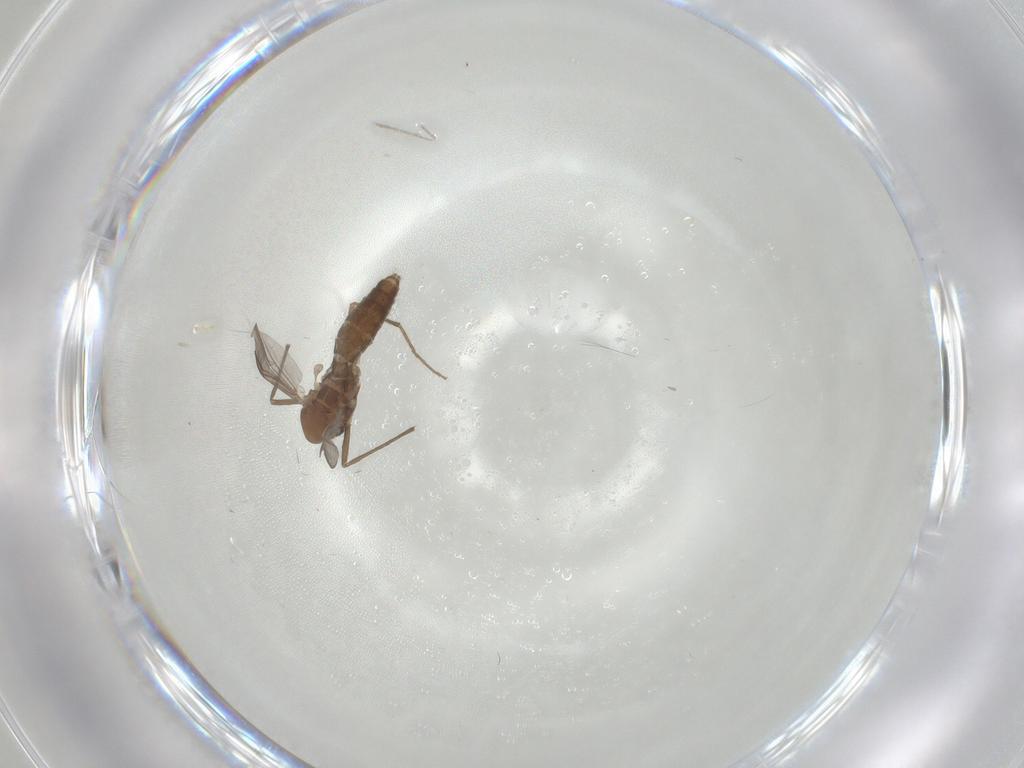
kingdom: Animalia
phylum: Arthropoda
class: Insecta
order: Diptera
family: Chironomidae
